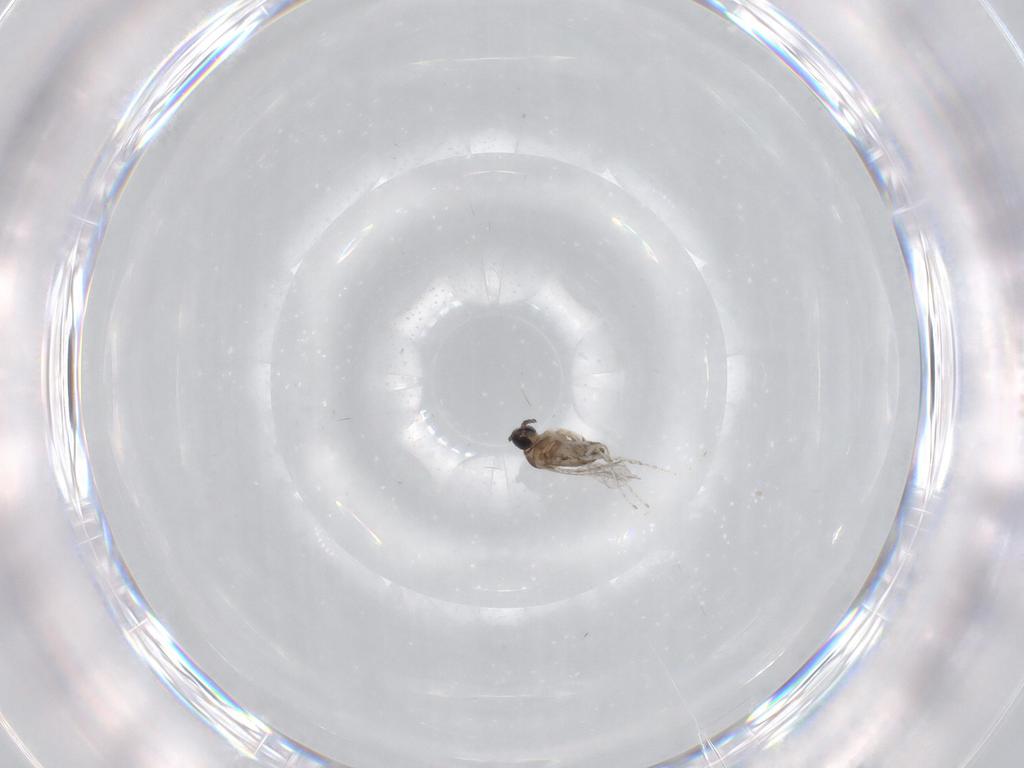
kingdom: Animalia
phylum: Arthropoda
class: Insecta
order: Diptera
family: Cecidomyiidae
